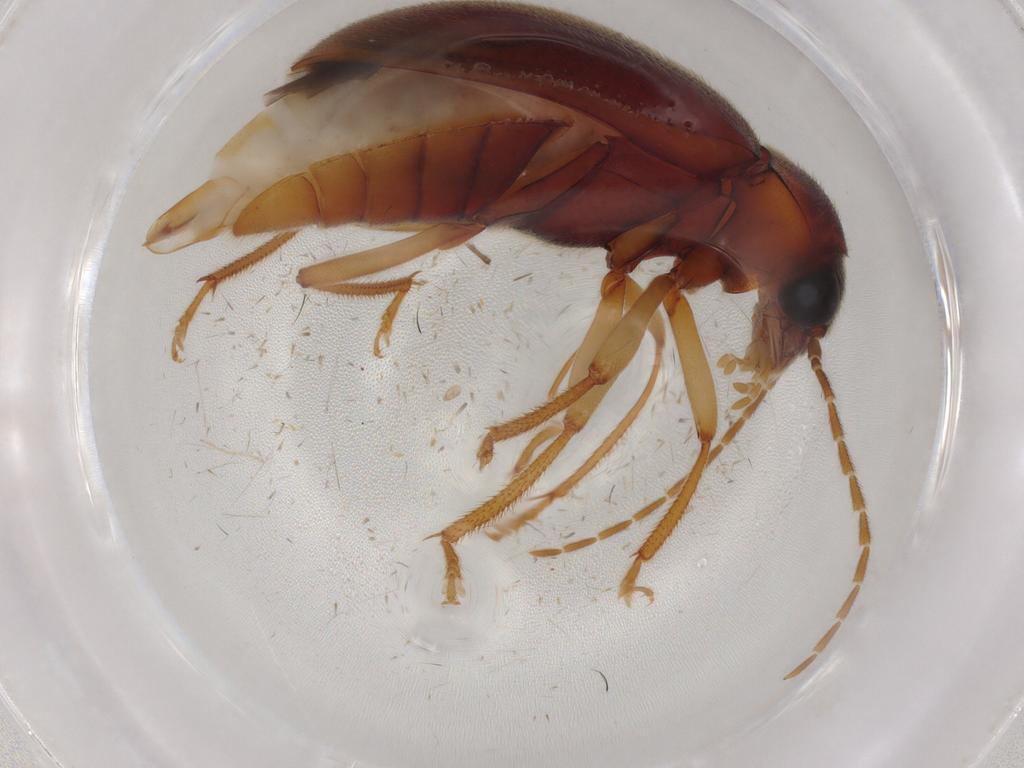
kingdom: Animalia
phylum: Arthropoda
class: Insecta
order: Coleoptera
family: Ptilodactylidae
